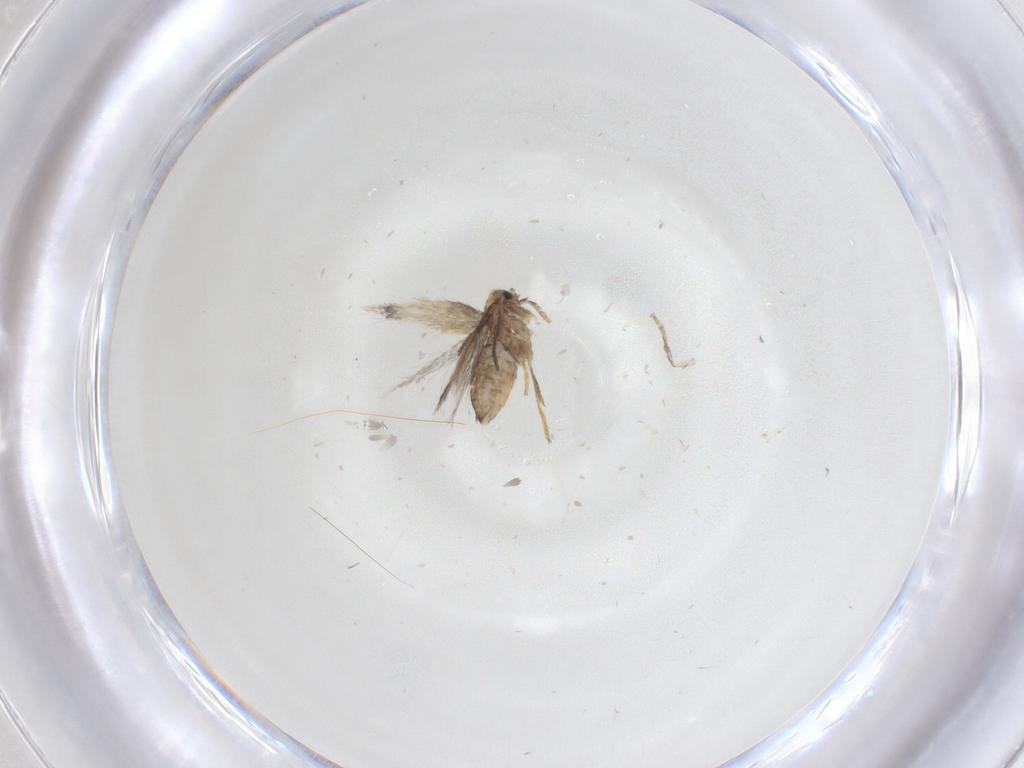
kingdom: Animalia
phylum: Arthropoda
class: Insecta
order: Lepidoptera
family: Nepticulidae
